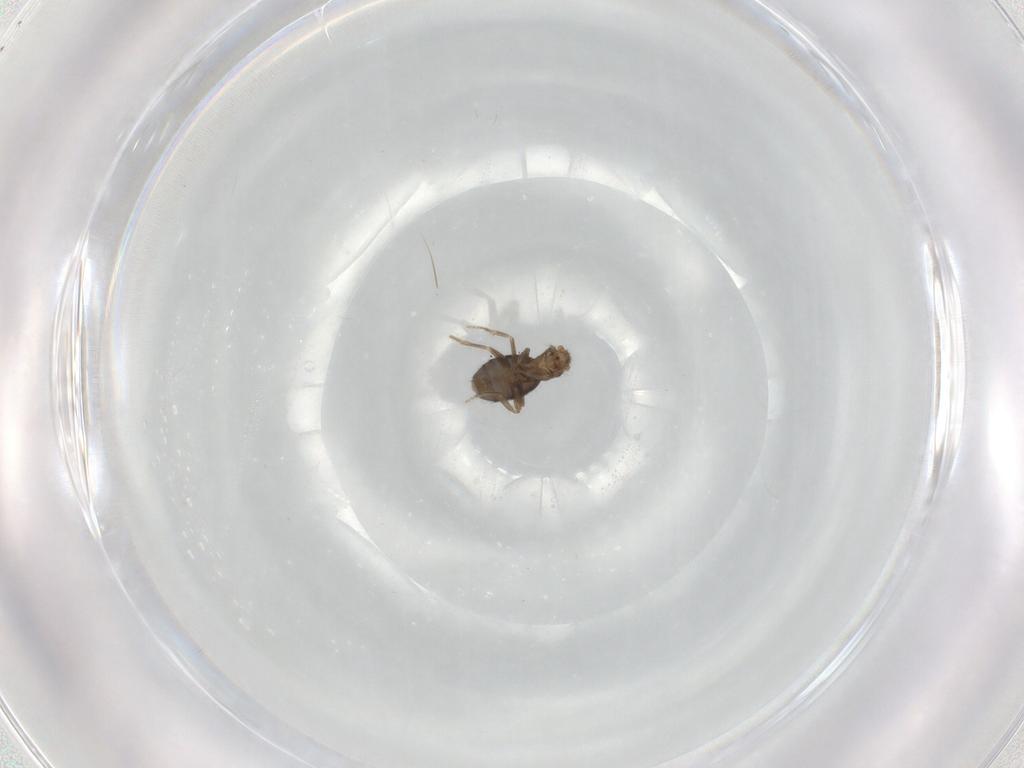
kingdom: Animalia
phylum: Arthropoda
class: Insecta
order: Diptera
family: Phoridae
